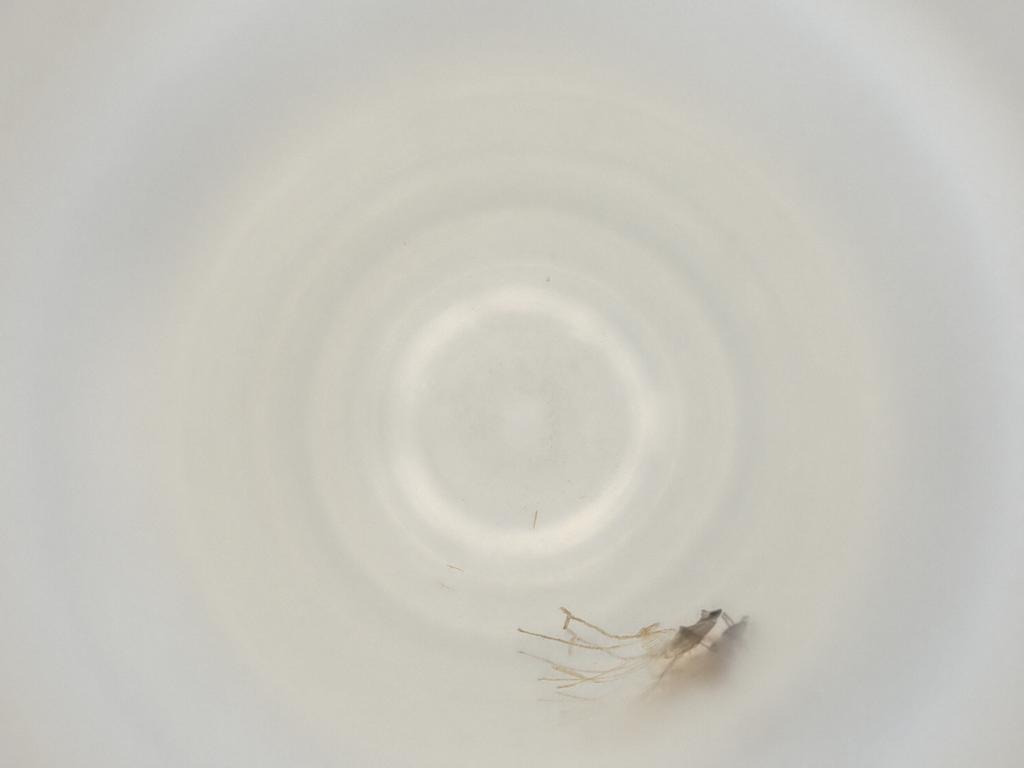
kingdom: Animalia
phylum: Arthropoda
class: Insecta
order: Diptera
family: Cecidomyiidae
